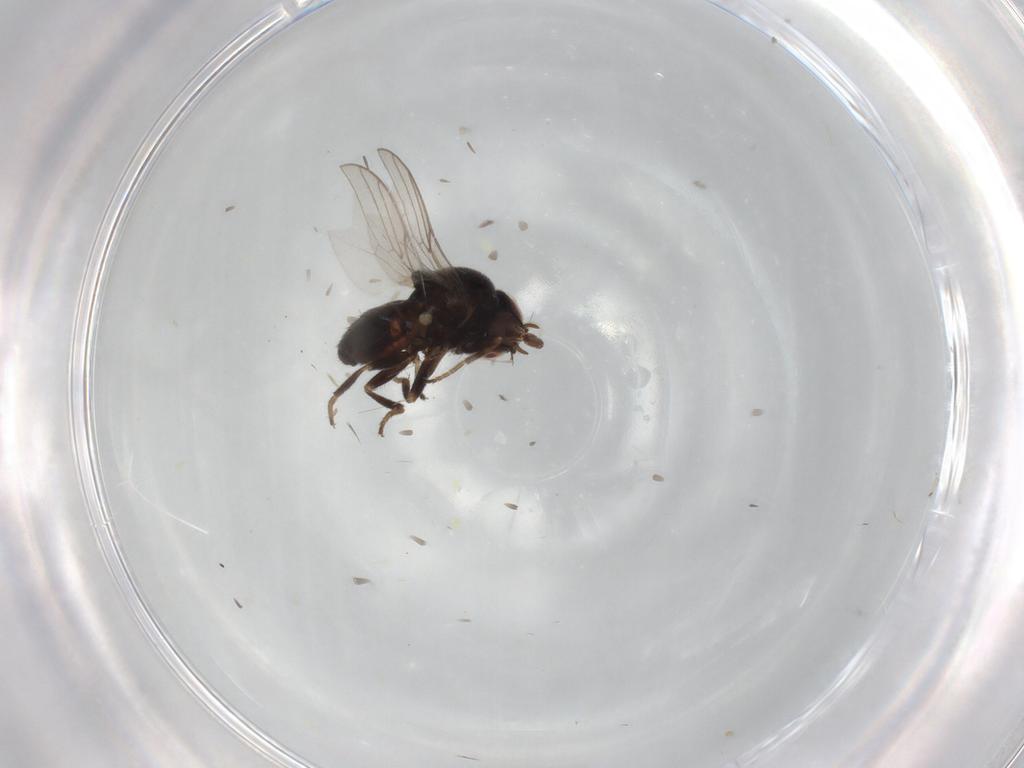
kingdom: Animalia
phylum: Arthropoda
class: Insecta
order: Diptera
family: Chloropidae
